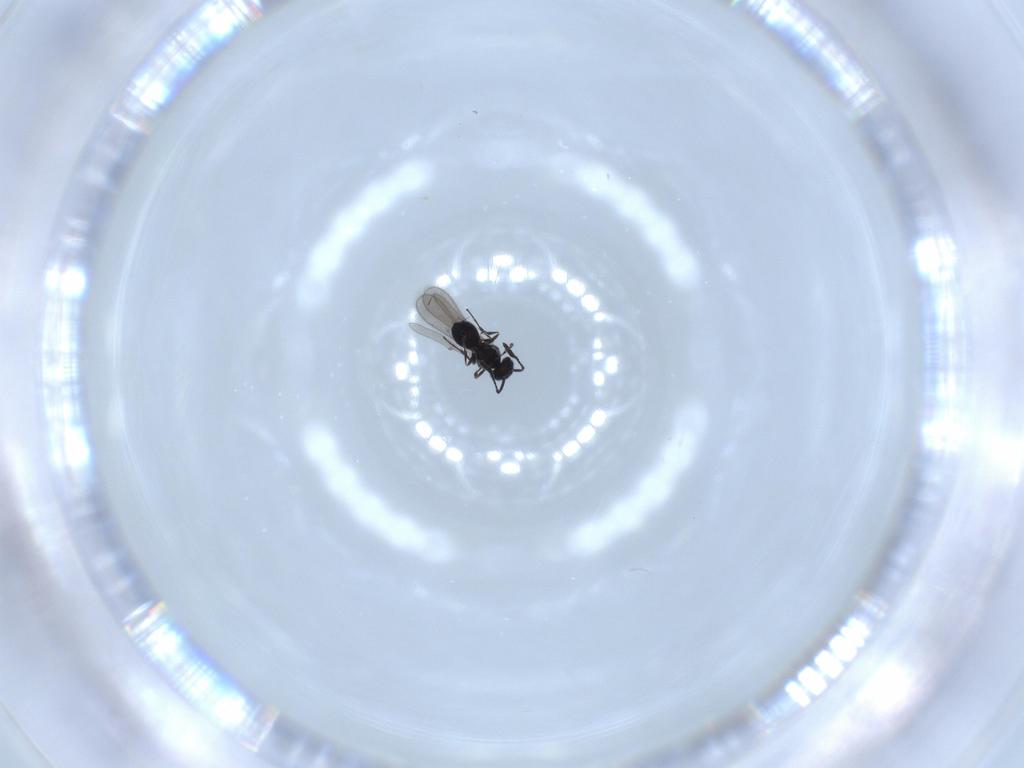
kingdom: Animalia
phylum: Arthropoda
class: Insecta
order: Hymenoptera
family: Scelionidae
